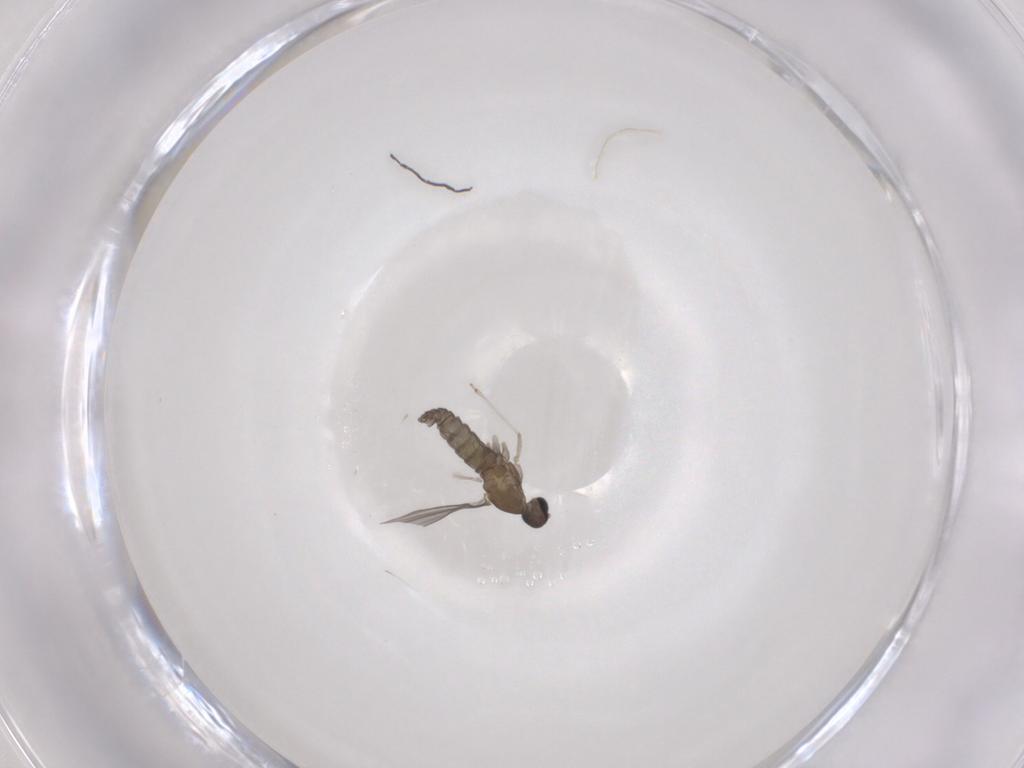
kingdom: Animalia
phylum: Arthropoda
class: Insecta
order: Diptera
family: Cecidomyiidae
